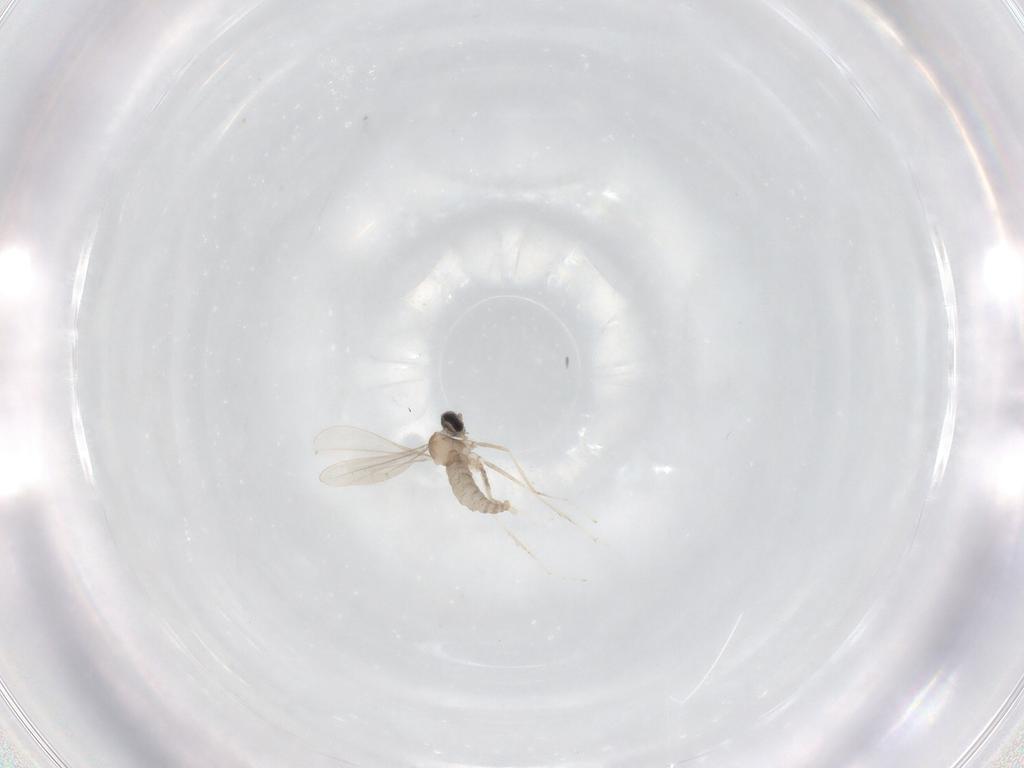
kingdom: Animalia
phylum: Arthropoda
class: Insecta
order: Diptera
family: Cecidomyiidae
